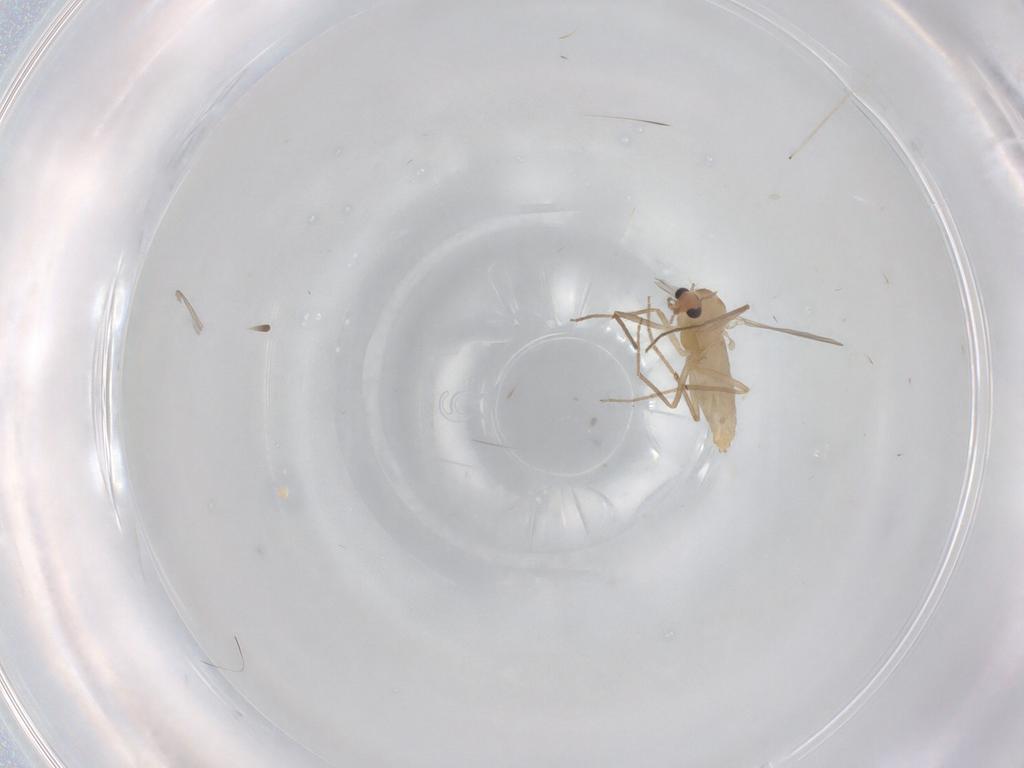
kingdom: Animalia
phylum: Arthropoda
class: Insecta
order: Diptera
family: Chironomidae
